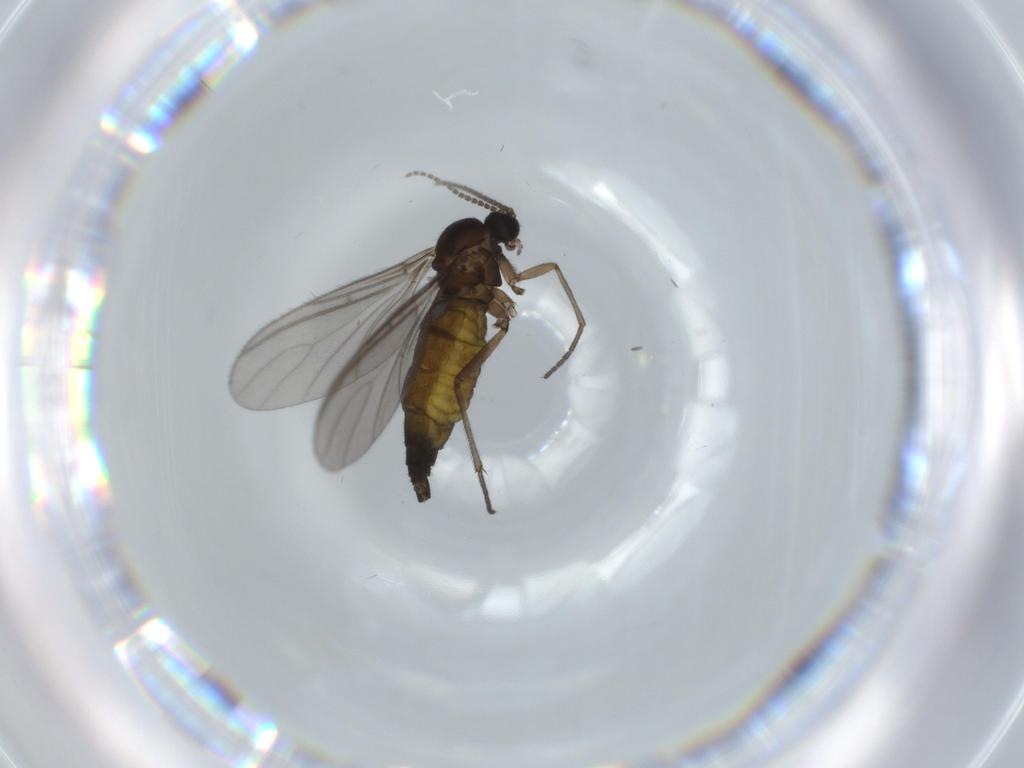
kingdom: Animalia
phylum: Arthropoda
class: Insecta
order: Diptera
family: Sciaridae
